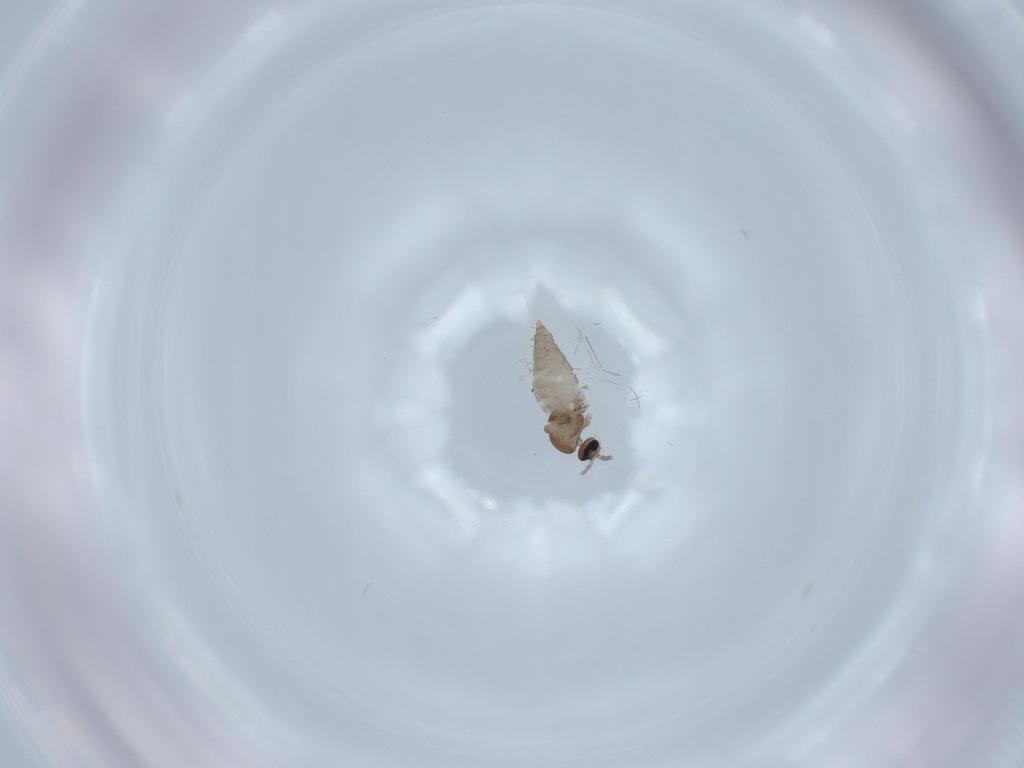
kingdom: Animalia
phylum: Arthropoda
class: Insecta
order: Diptera
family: Cecidomyiidae
